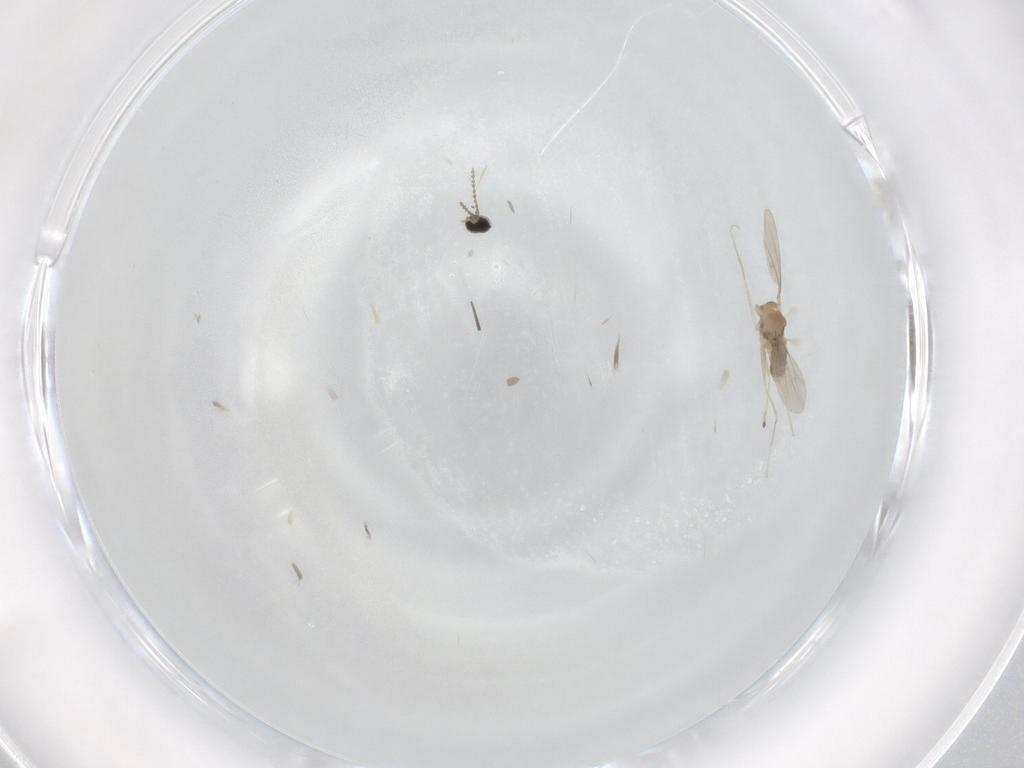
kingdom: Animalia
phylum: Arthropoda
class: Insecta
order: Diptera
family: Cecidomyiidae
